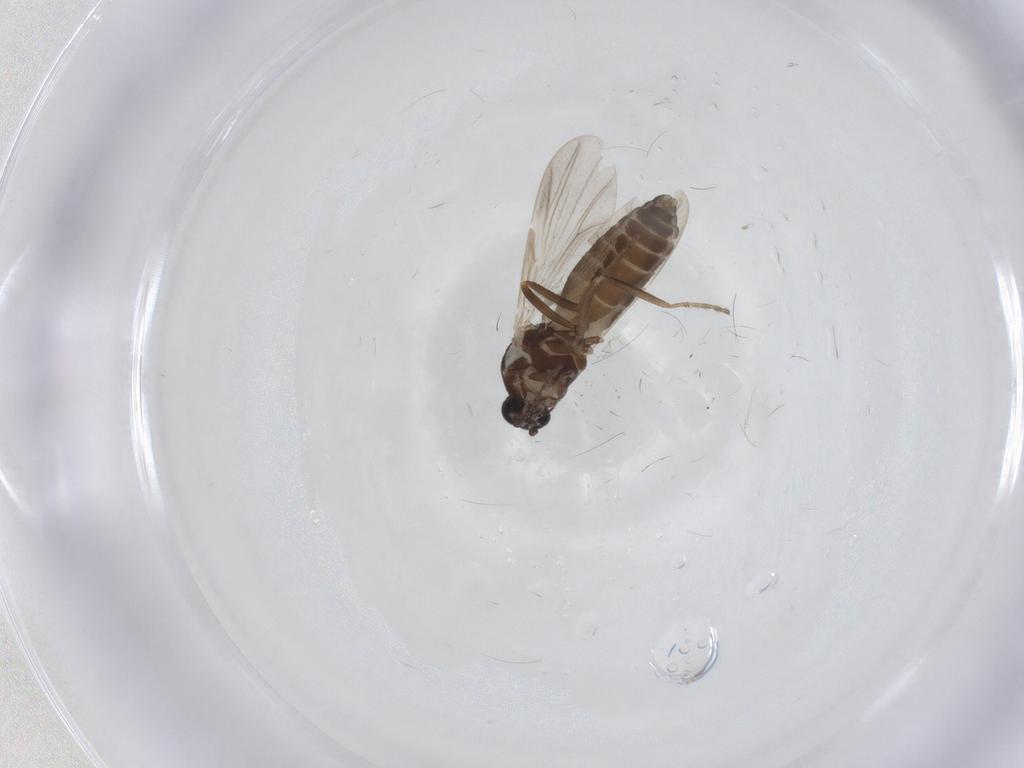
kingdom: Animalia
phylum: Arthropoda
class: Insecta
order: Diptera
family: Ceratopogonidae
